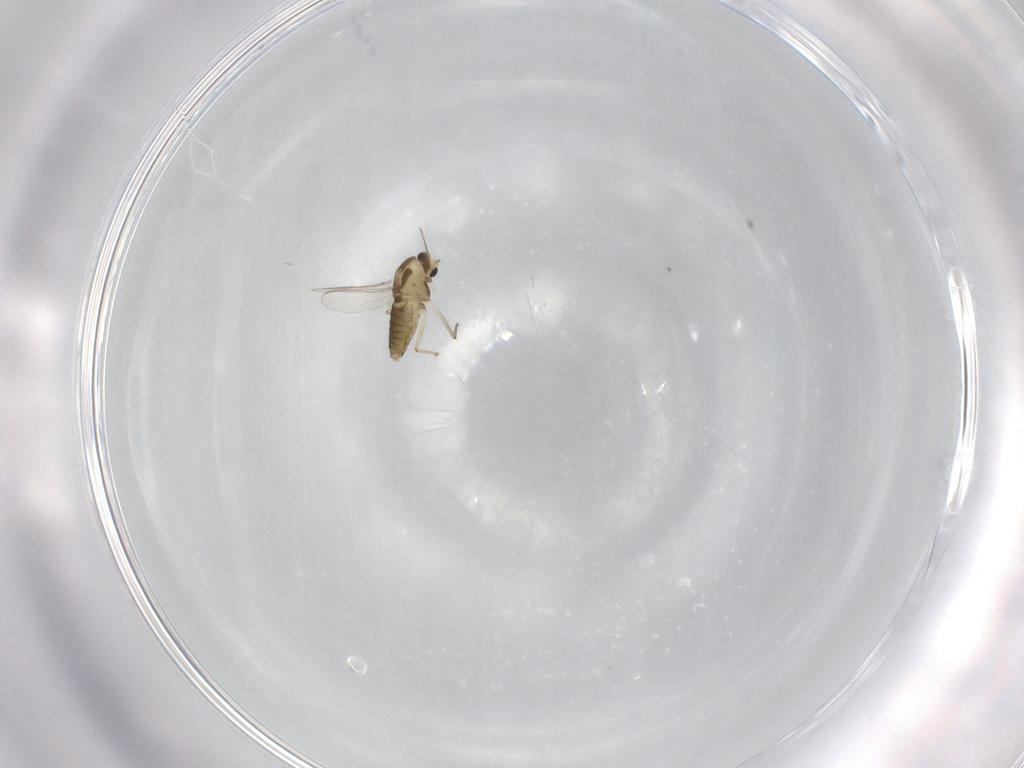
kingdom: Animalia
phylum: Arthropoda
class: Insecta
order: Diptera
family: Chironomidae
